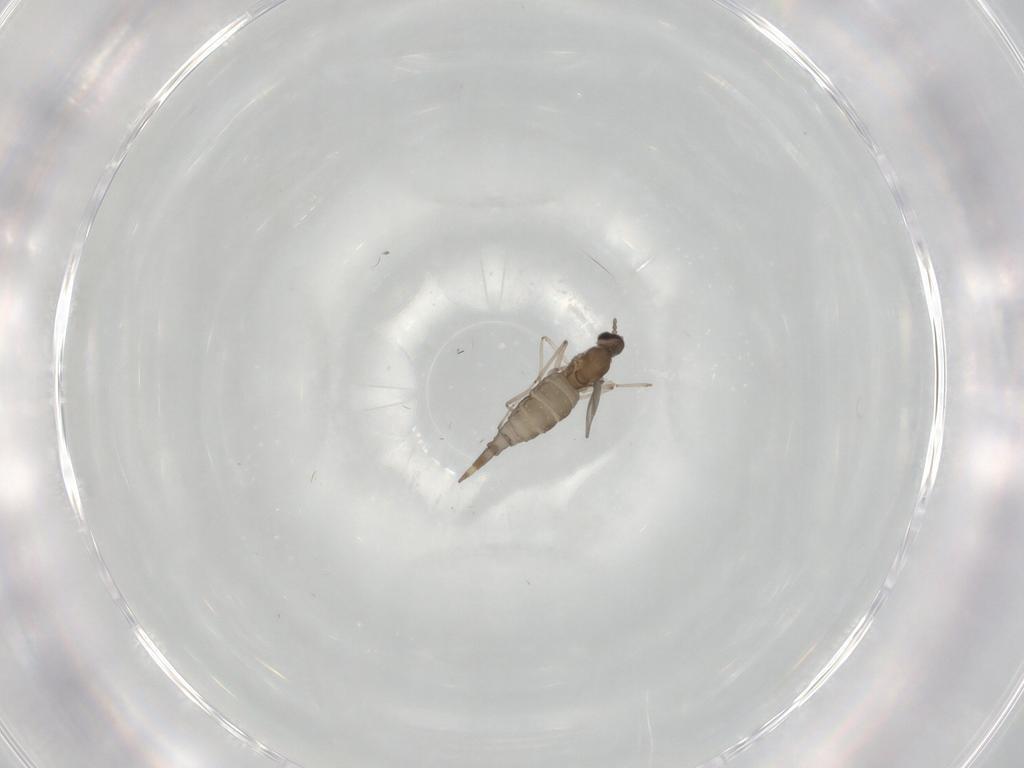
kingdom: Animalia
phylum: Arthropoda
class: Insecta
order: Diptera
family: Cecidomyiidae
